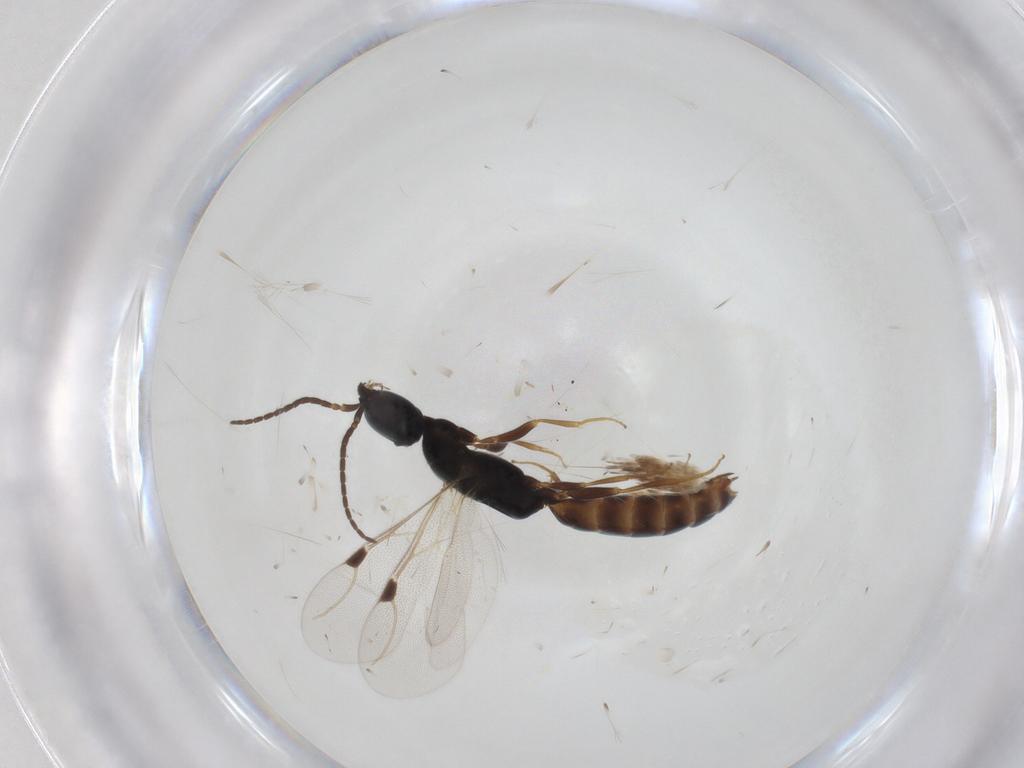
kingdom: Animalia
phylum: Arthropoda
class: Insecta
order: Hymenoptera
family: Bethylidae
